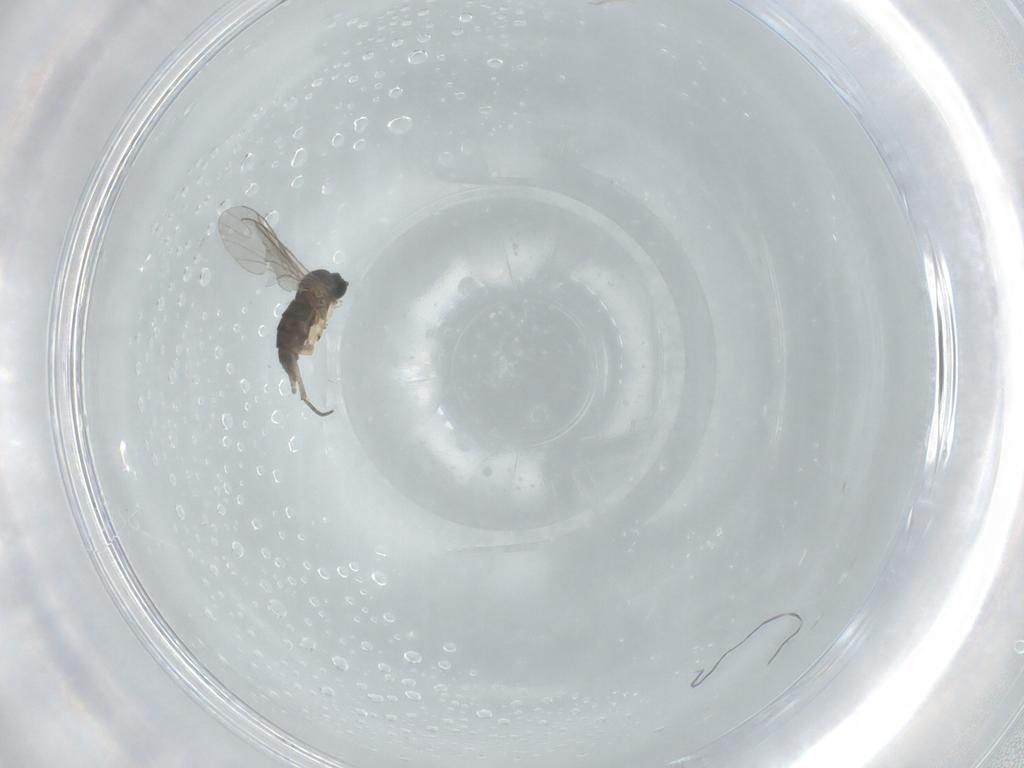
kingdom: Animalia
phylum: Arthropoda
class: Insecta
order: Diptera
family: Sciaridae
